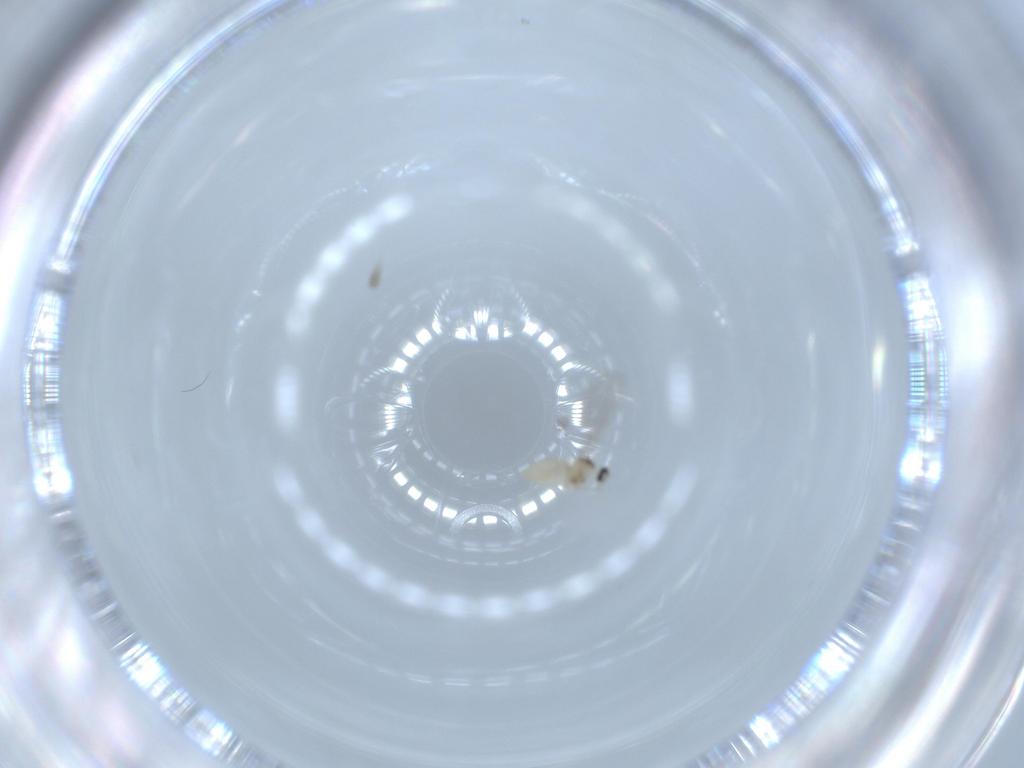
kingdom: Animalia
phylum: Arthropoda
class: Insecta
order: Diptera
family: Sciaridae
